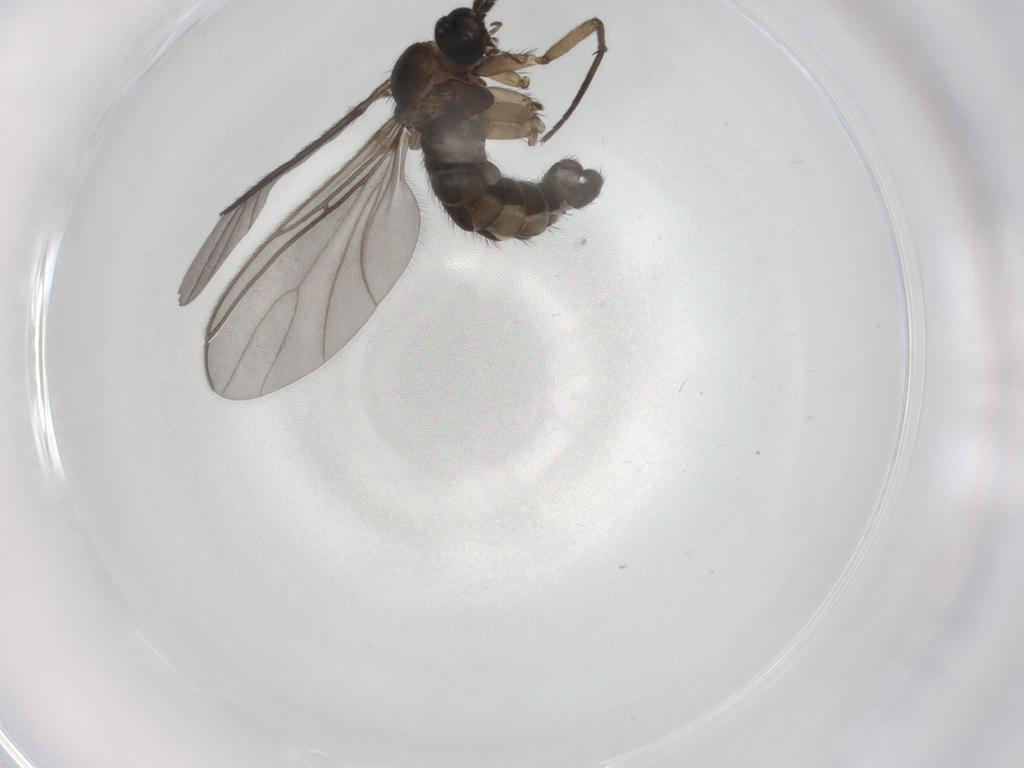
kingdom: Animalia
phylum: Arthropoda
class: Insecta
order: Diptera
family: Sciaridae
